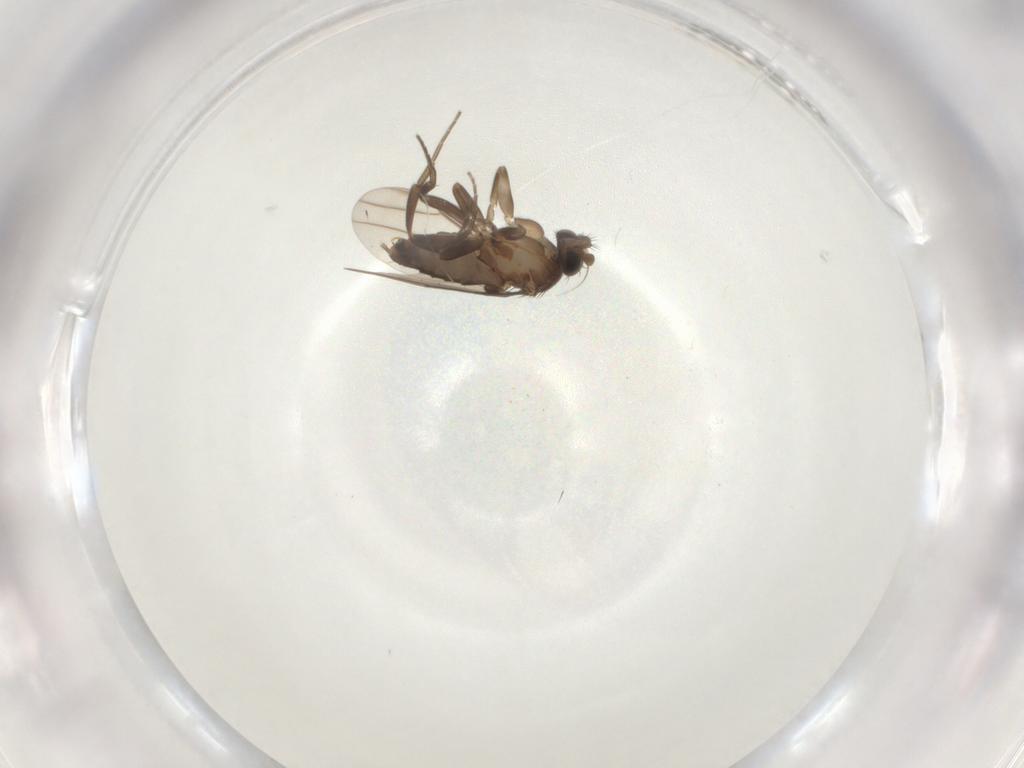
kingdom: Animalia
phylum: Arthropoda
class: Insecta
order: Diptera
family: Phoridae
